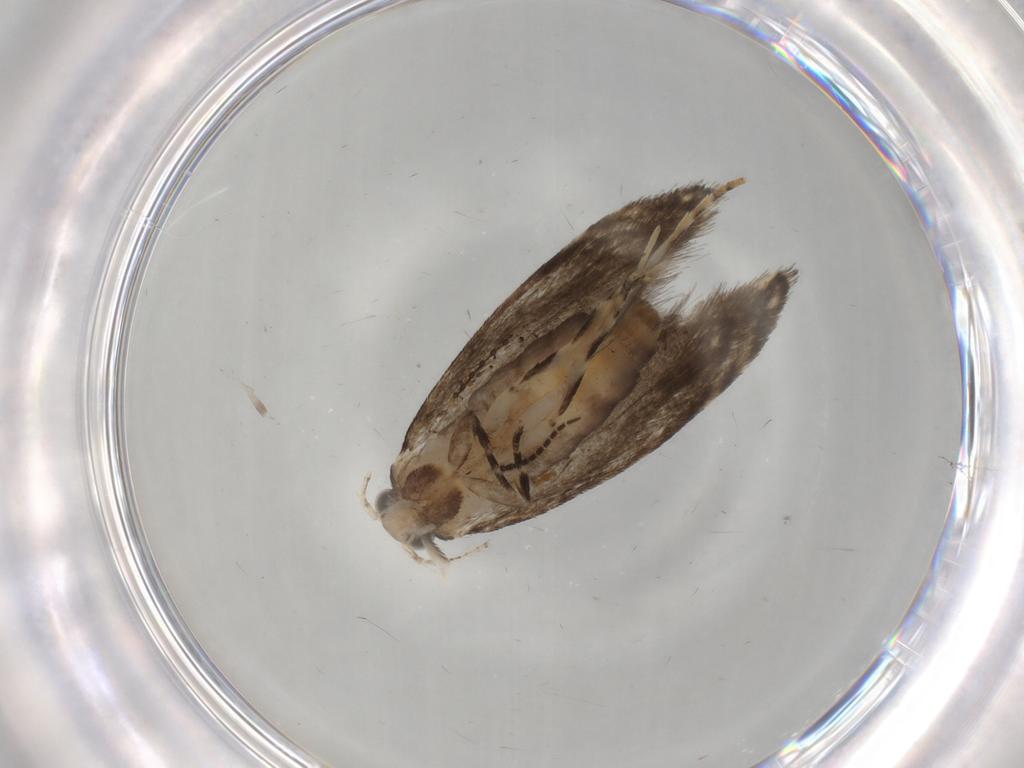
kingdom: Animalia
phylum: Arthropoda
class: Insecta
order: Lepidoptera
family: Tineidae
